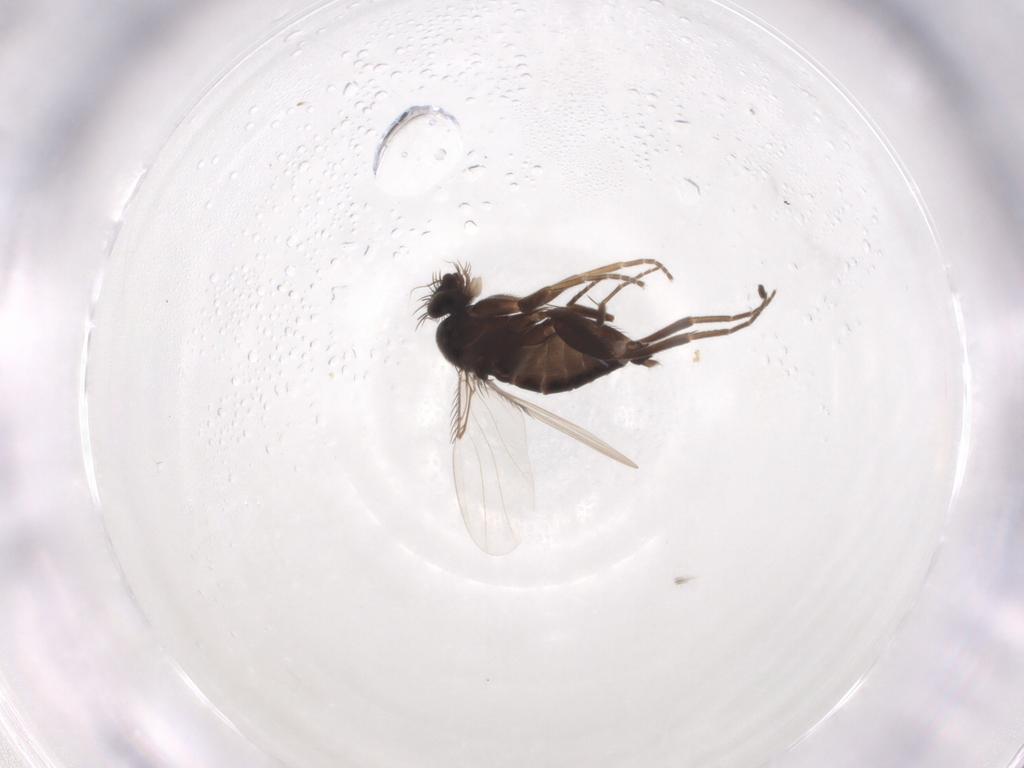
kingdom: Animalia
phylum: Arthropoda
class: Insecta
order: Diptera
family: Phoridae
